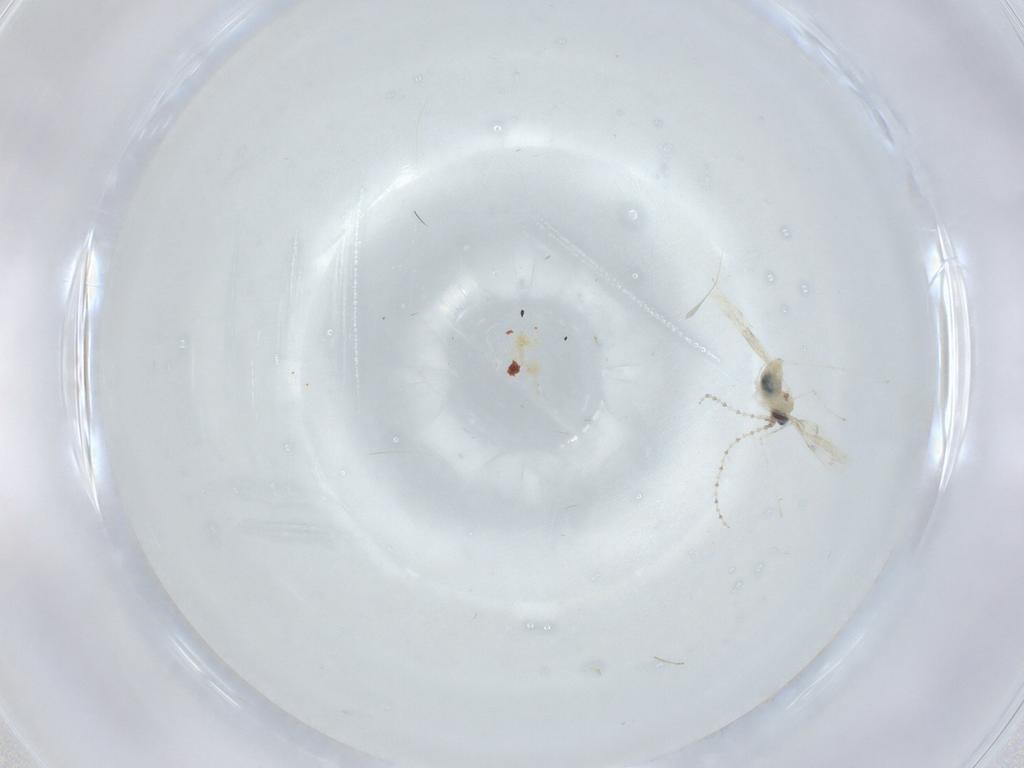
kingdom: Animalia
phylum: Arthropoda
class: Insecta
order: Diptera
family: Cecidomyiidae
